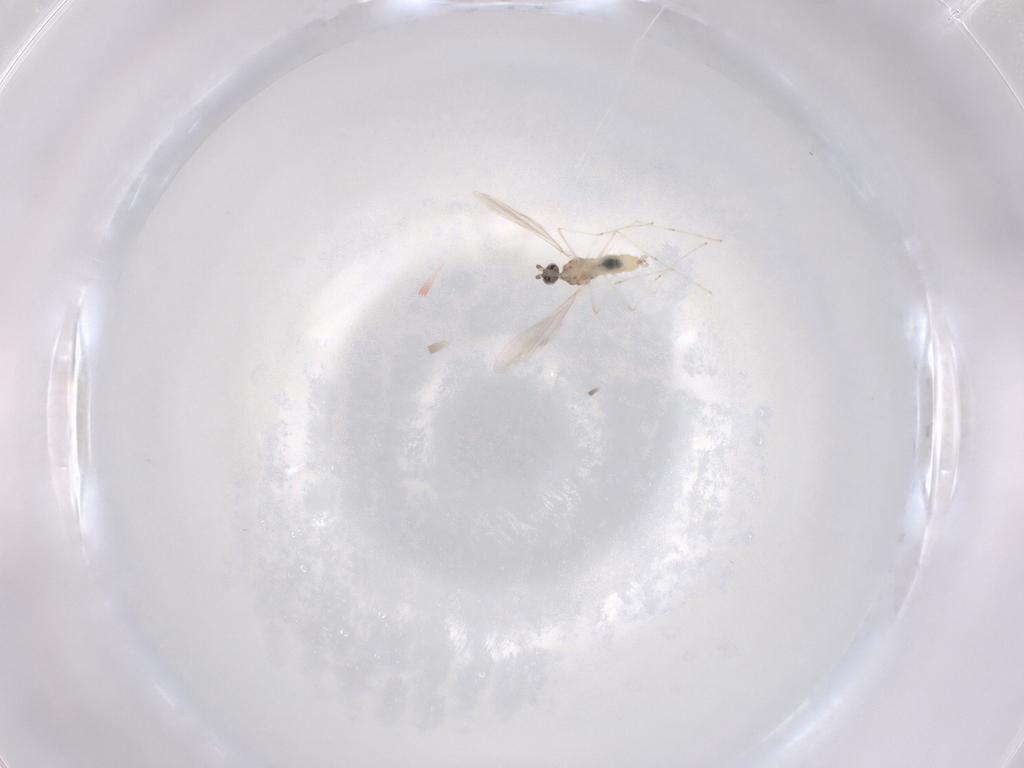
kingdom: Animalia
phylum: Arthropoda
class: Insecta
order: Diptera
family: Cecidomyiidae
